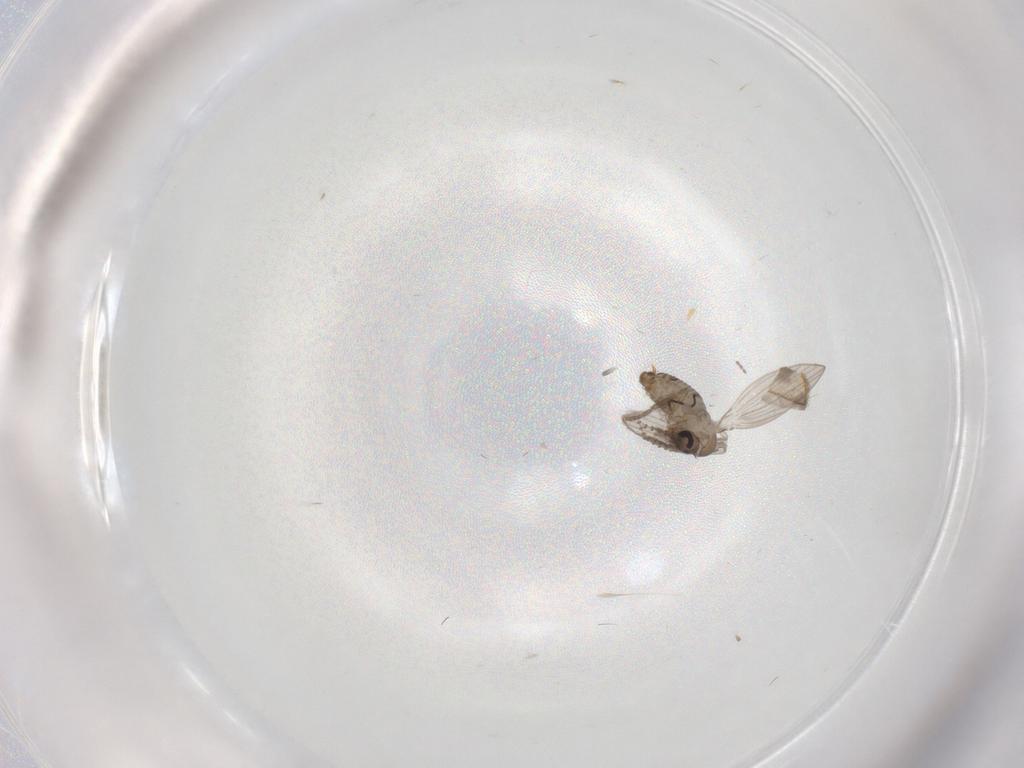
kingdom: Animalia
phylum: Arthropoda
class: Insecta
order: Diptera
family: Psychodidae
